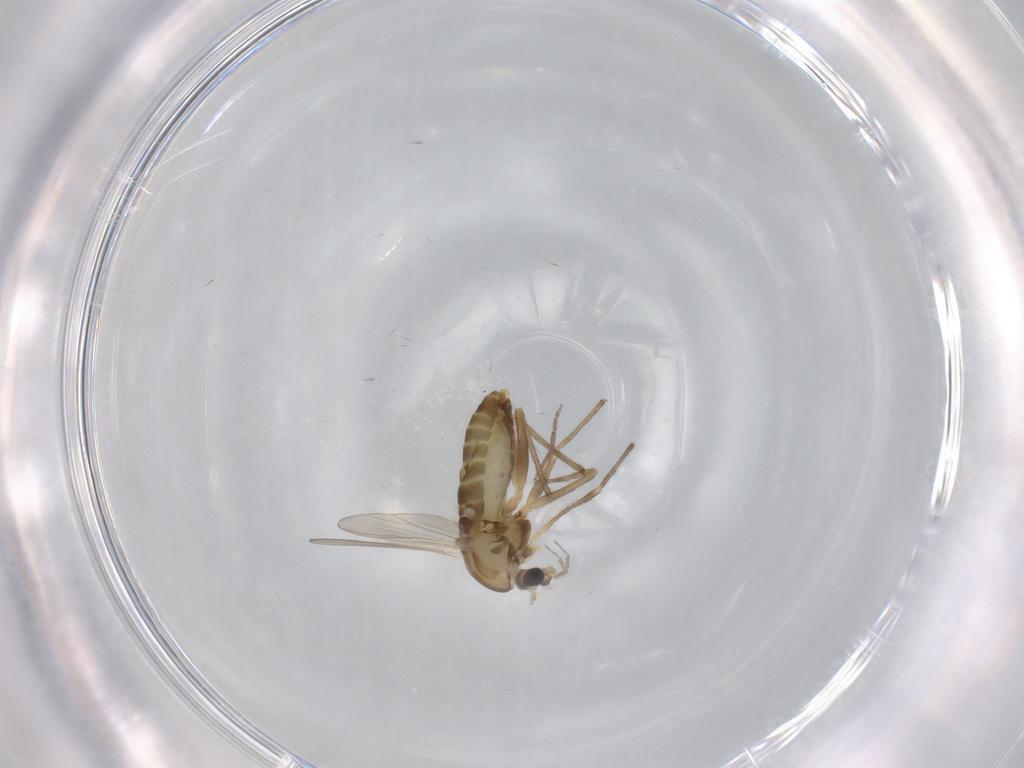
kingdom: Animalia
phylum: Arthropoda
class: Insecta
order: Diptera
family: Chironomidae
